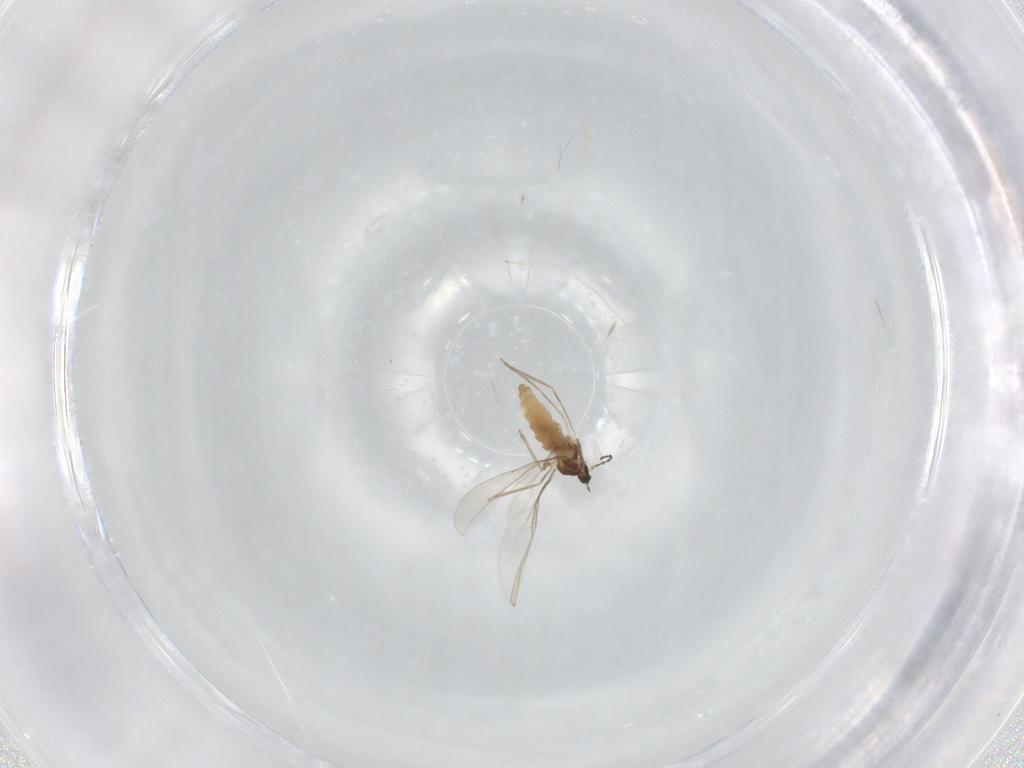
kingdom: Animalia
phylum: Arthropoda
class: Insecta
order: Diptera
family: Cecidomyiidae
